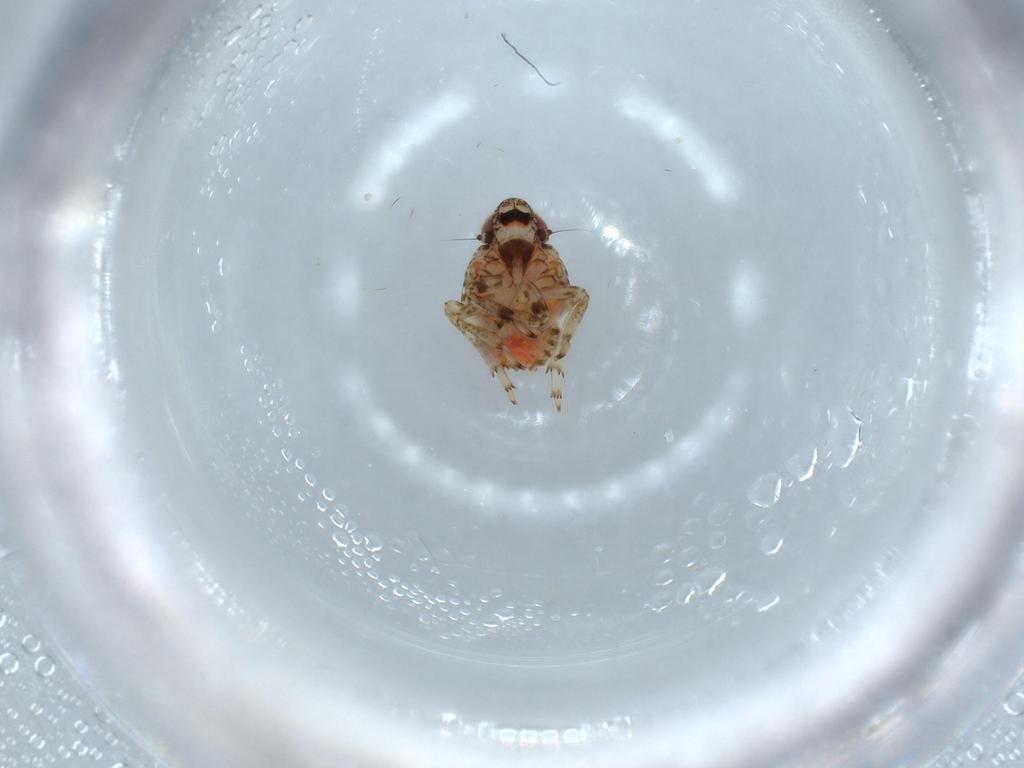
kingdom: Animalia
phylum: Arthropoda
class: Insecta
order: Hemiptera
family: Issidae
